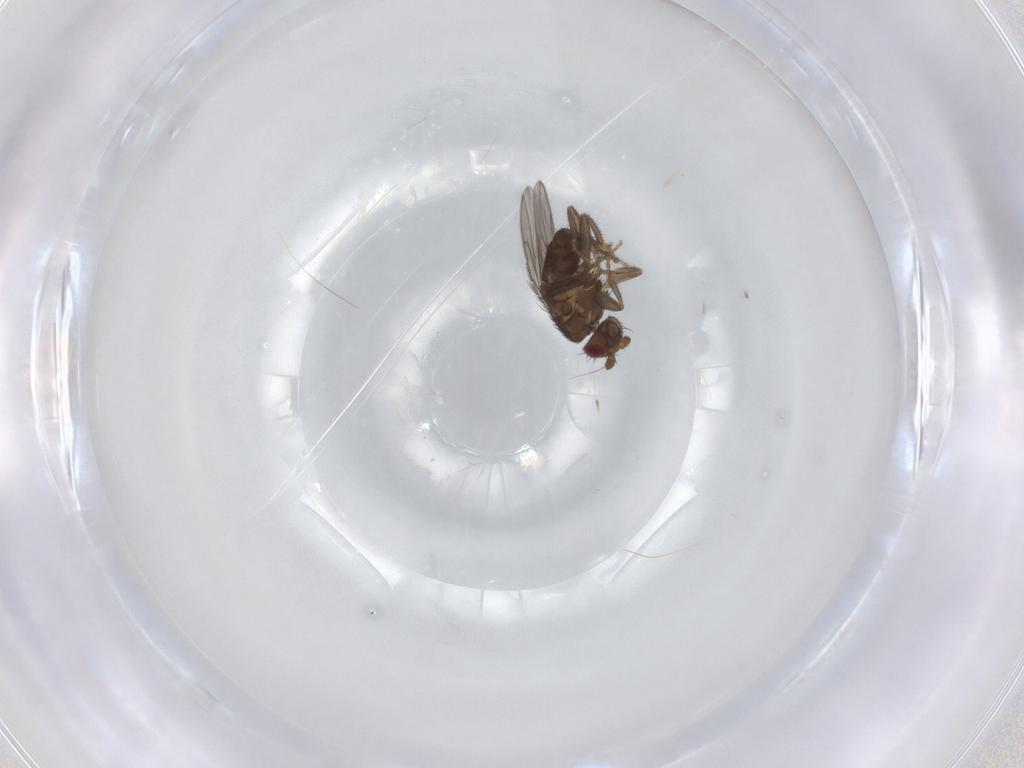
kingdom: Animalia
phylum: Arthropoda
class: Insecta
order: Diptera
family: Sphaeroceridae
